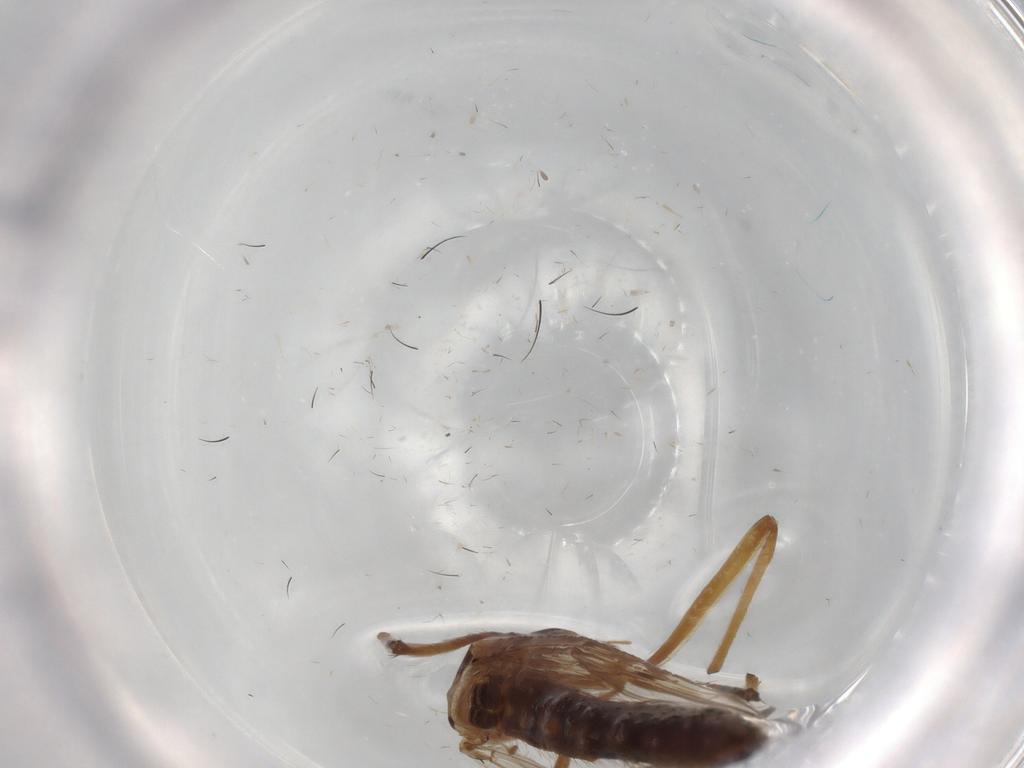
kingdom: Animalia
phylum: Arthropoda
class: Insecta
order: Diptera
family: Chironomidae
